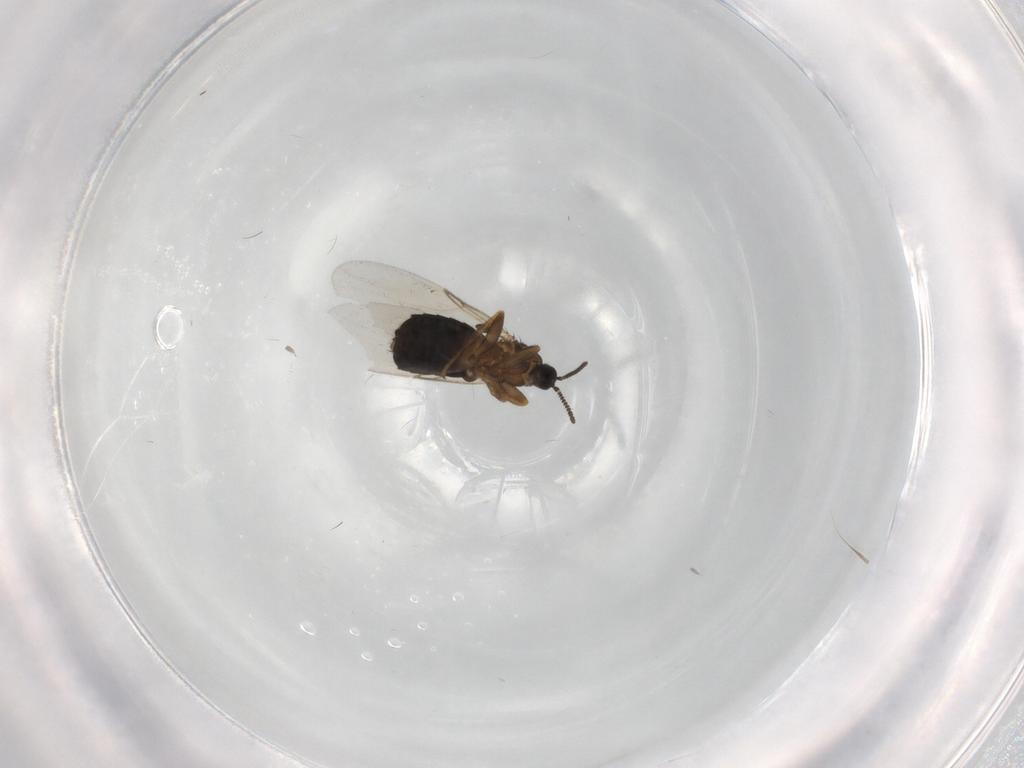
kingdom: Animalia
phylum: Arthropoda
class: Insecta
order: Diptera
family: Scatopsidae
